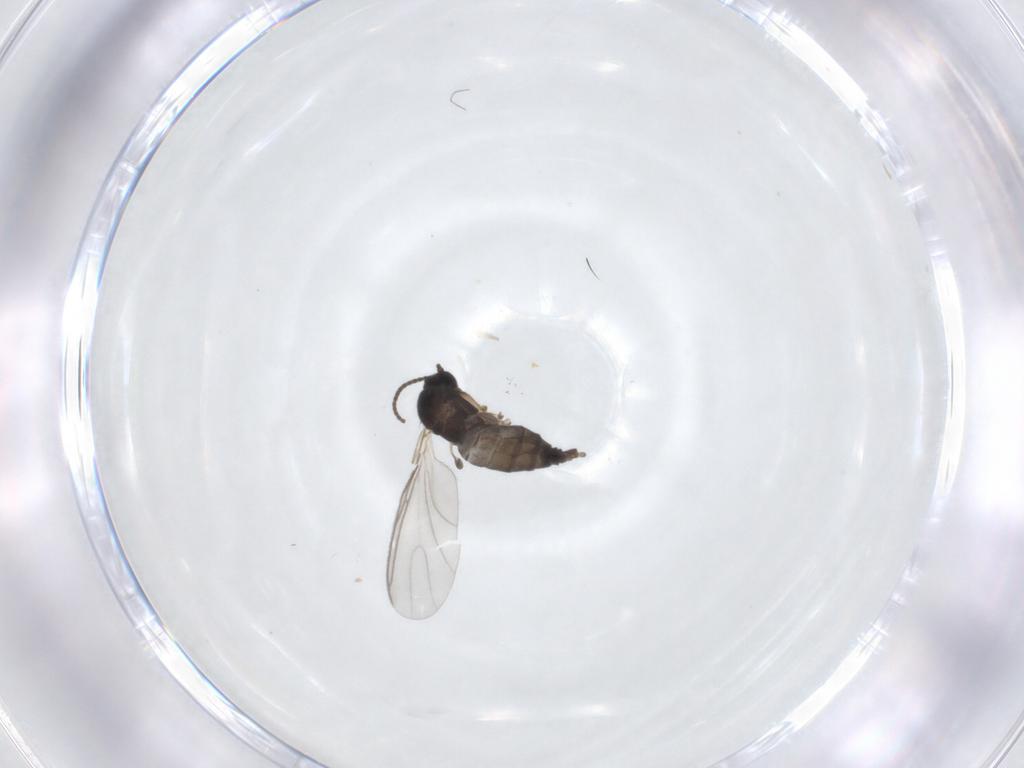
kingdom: Animalia
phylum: Arthropoda
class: Insecta
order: Diptera
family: Sciaridae
